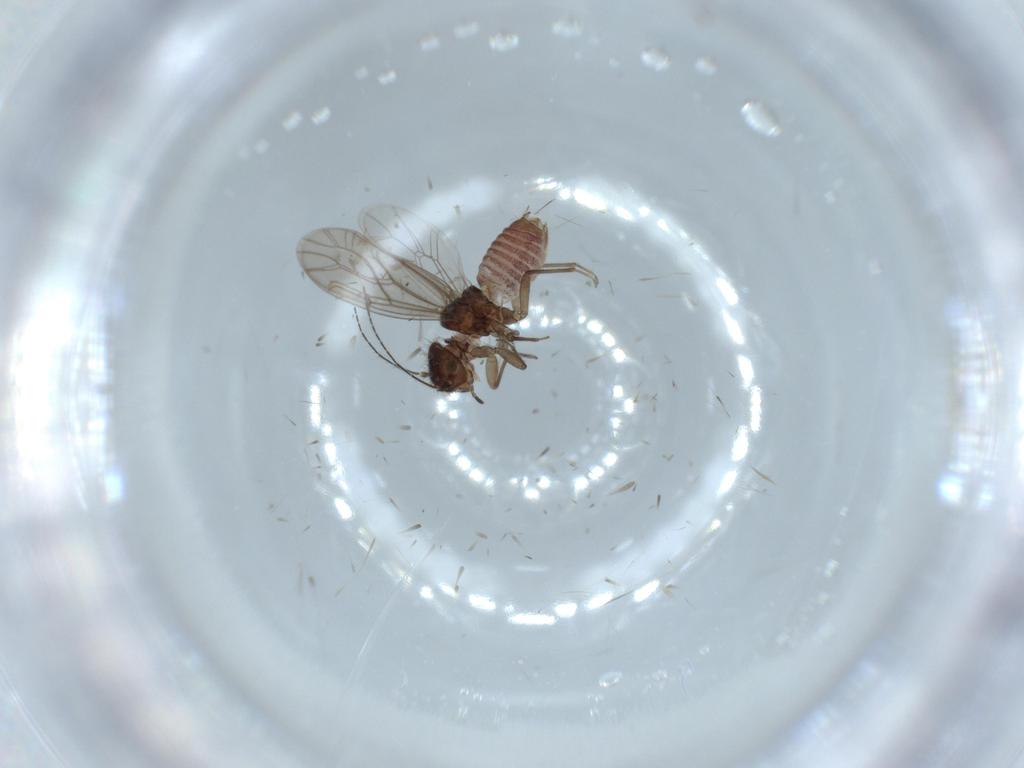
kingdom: Animalia
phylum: Arthropoda
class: Insecta
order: Psocodea
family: Ectopsocidae
